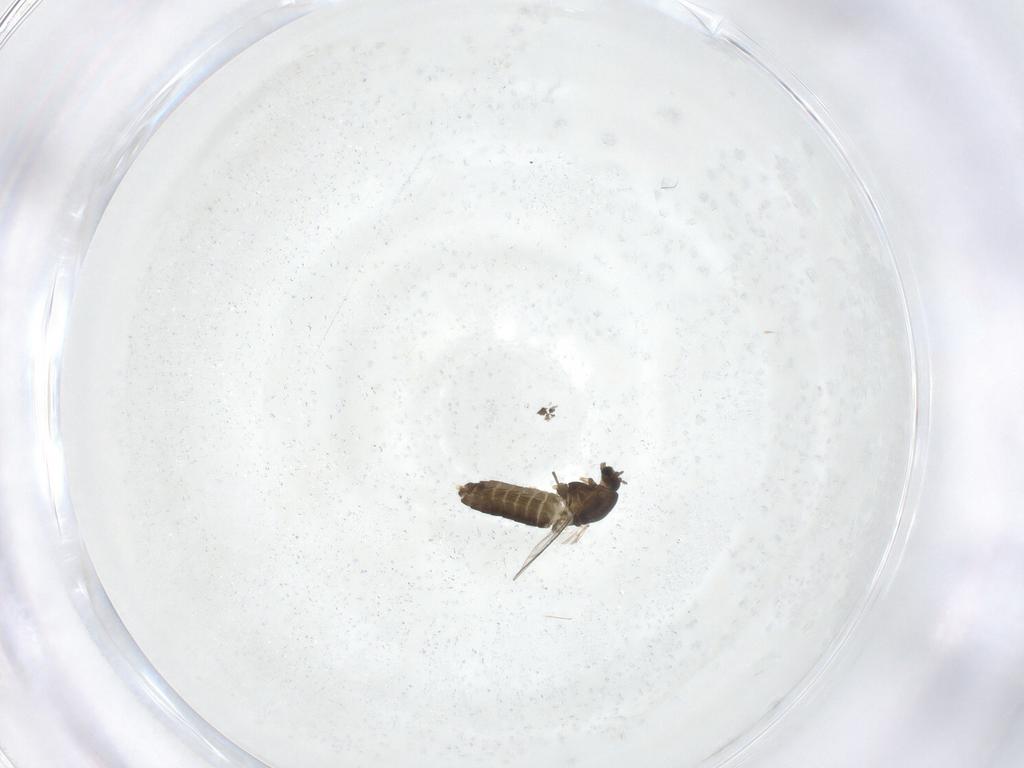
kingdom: Animalia
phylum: Arthropoda
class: Insecta
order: Diptera
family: Chironomidae
